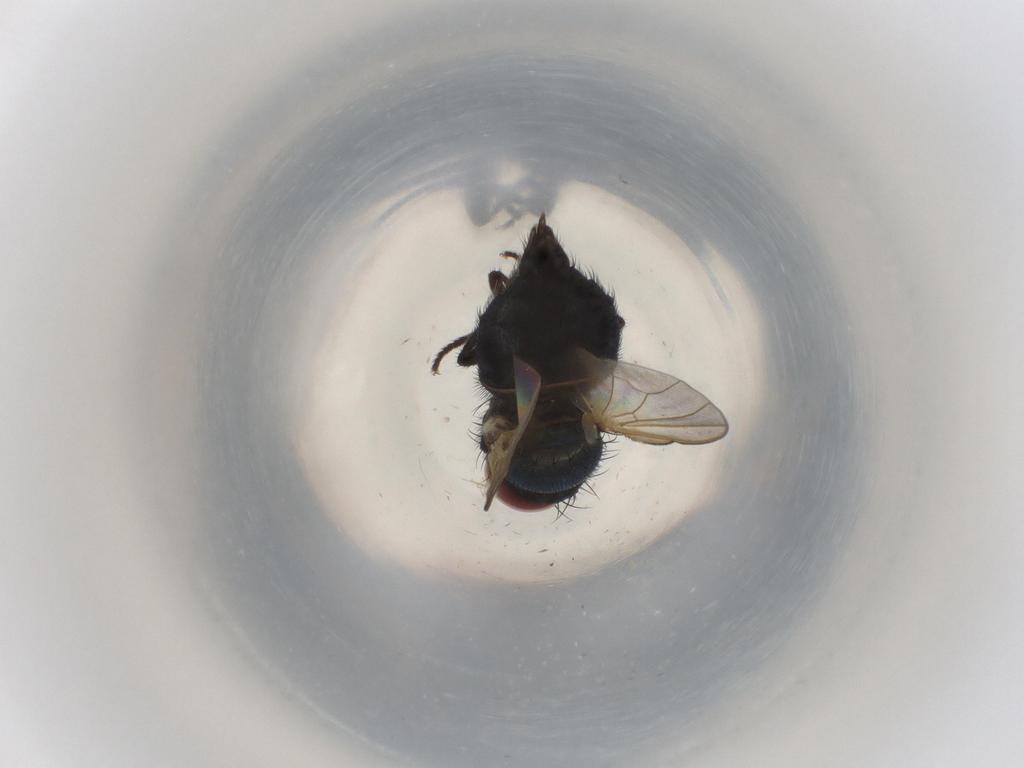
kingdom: Animalia
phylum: Arthropoda
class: Insecta
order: Diptera
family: Lonchaeidae
